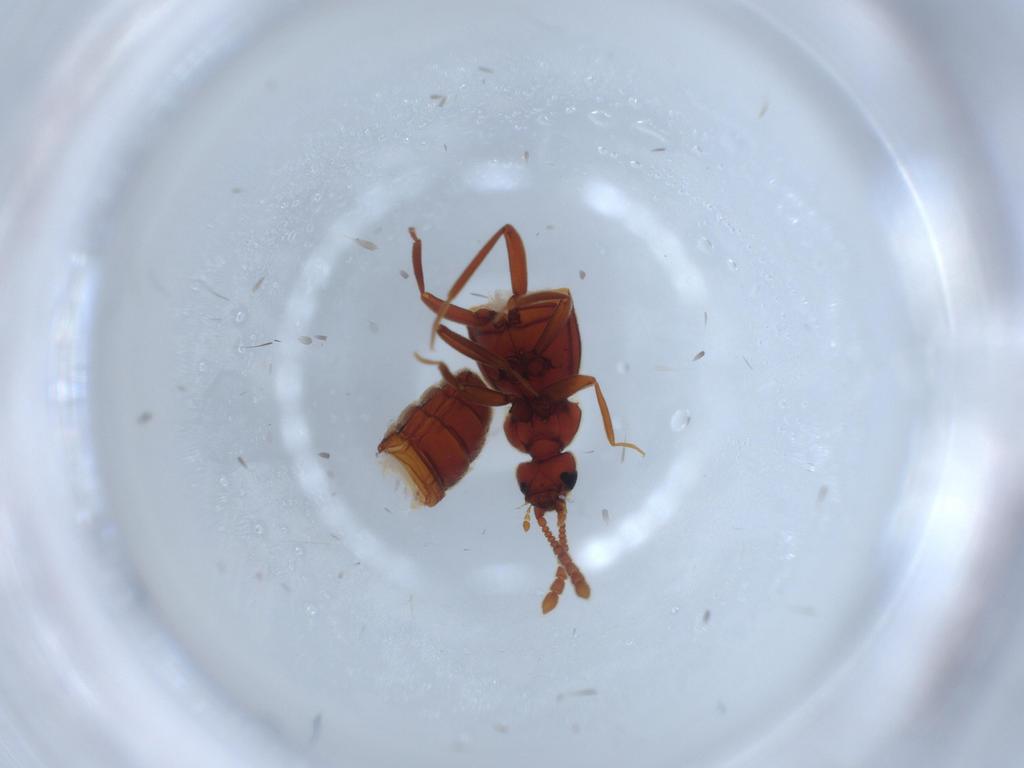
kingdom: Animalia
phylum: Arthropoda
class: Insecta
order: Coleoptera
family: Staphylinidae
